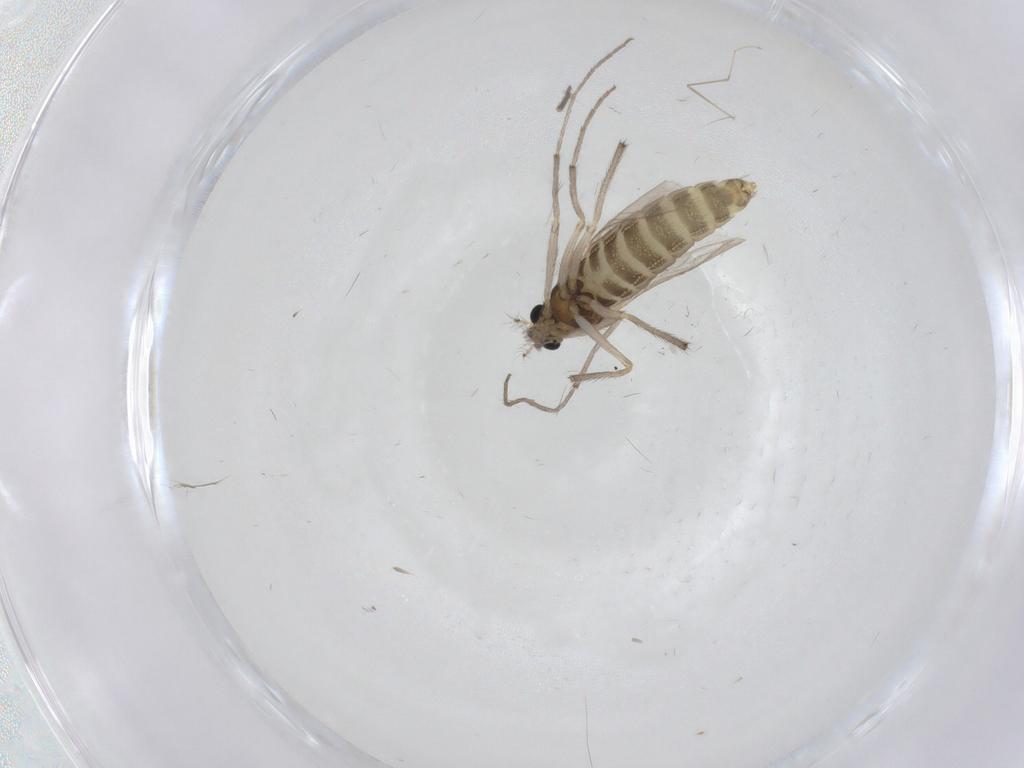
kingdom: Animalia
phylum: Arthropoda
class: Insecta
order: Diptera
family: Chironomidae
